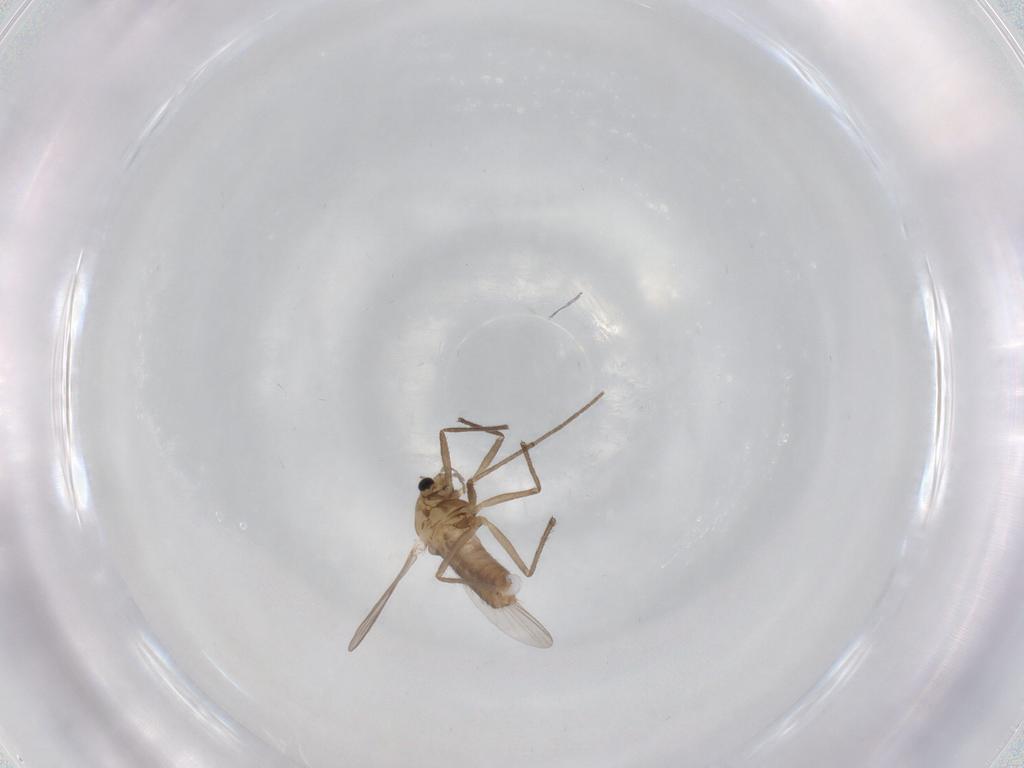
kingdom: Animalia
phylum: Arthropoda
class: Insecta
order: Diptera
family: Chironomidae
